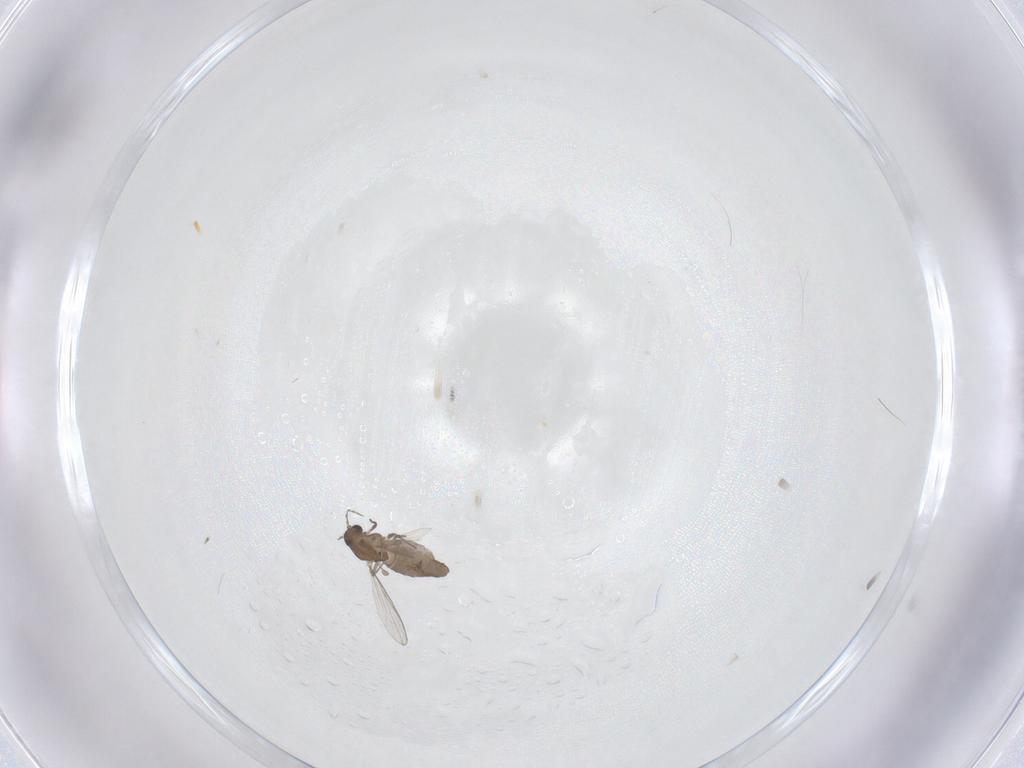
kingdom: Animalia
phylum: Arthropoda
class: Insecta
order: Diptera
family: Chironomidae
